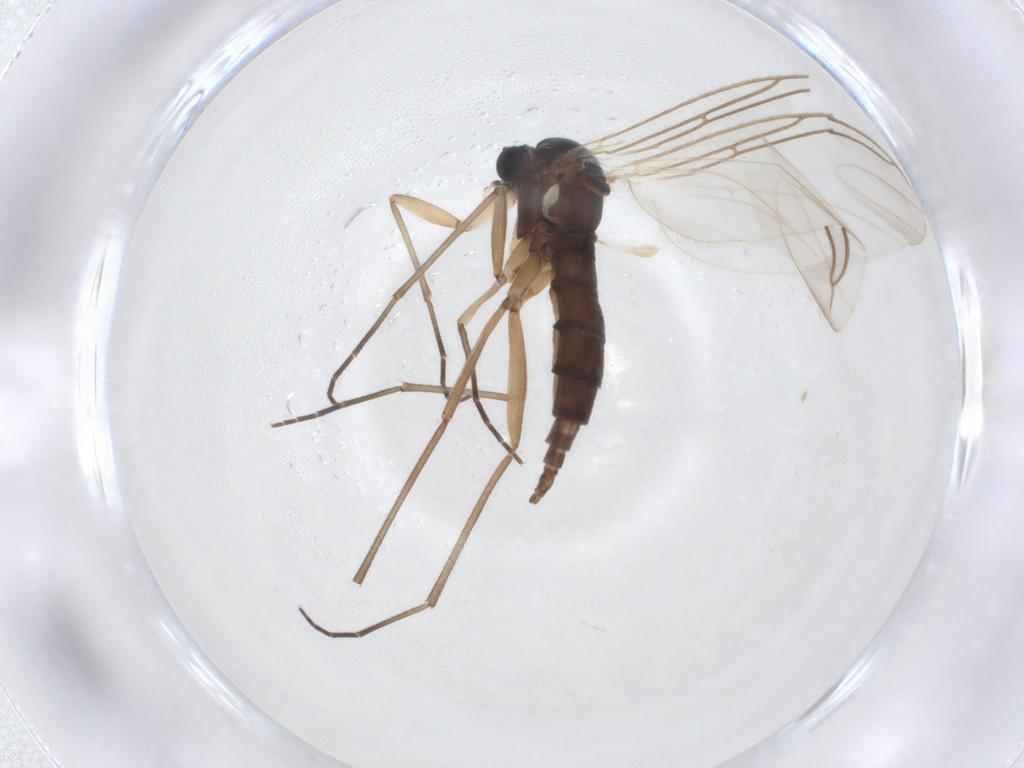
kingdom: Animalia
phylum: Arthropoda
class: Insecta
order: Diptera
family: Sciaridae
